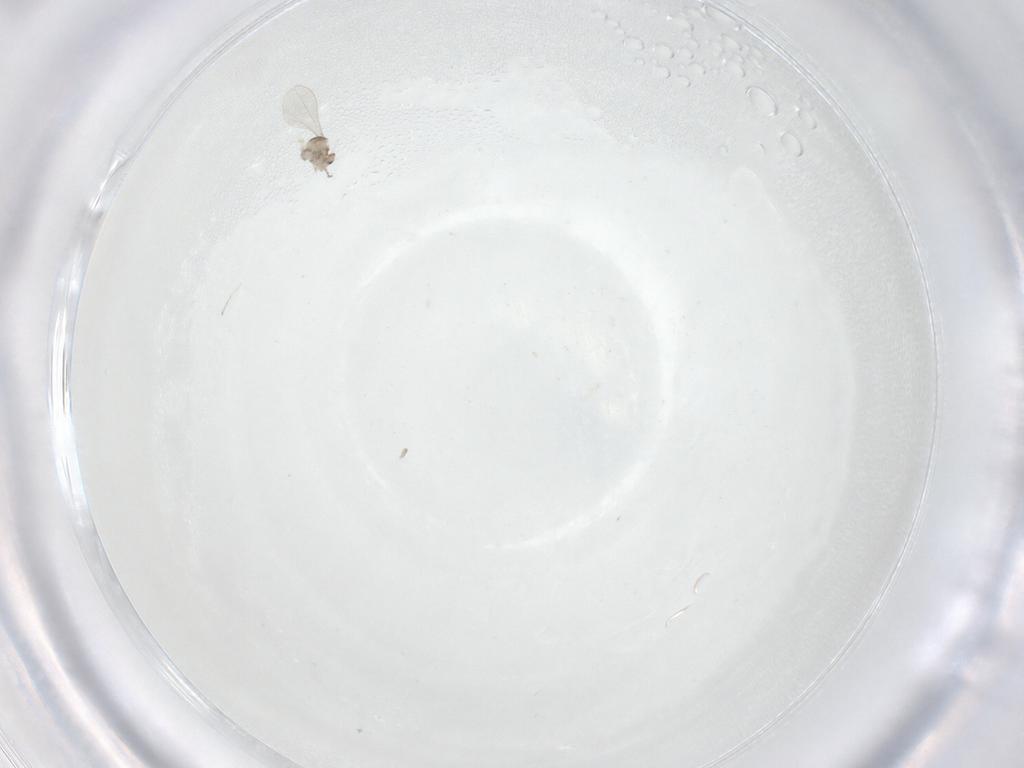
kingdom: Animalia
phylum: Arthropoda
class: Insecta
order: Diptera
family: Cecidomyiidae
